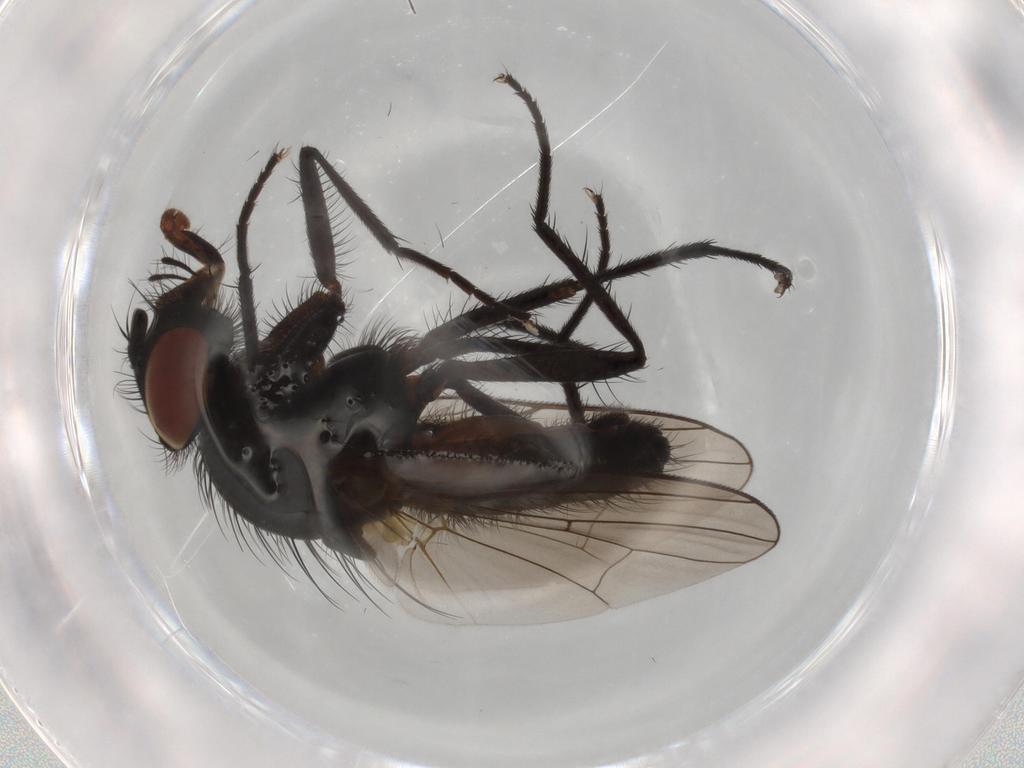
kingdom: Animalia
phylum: Arthropoda
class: Insecta
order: Diptera
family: Anthomyiidae
